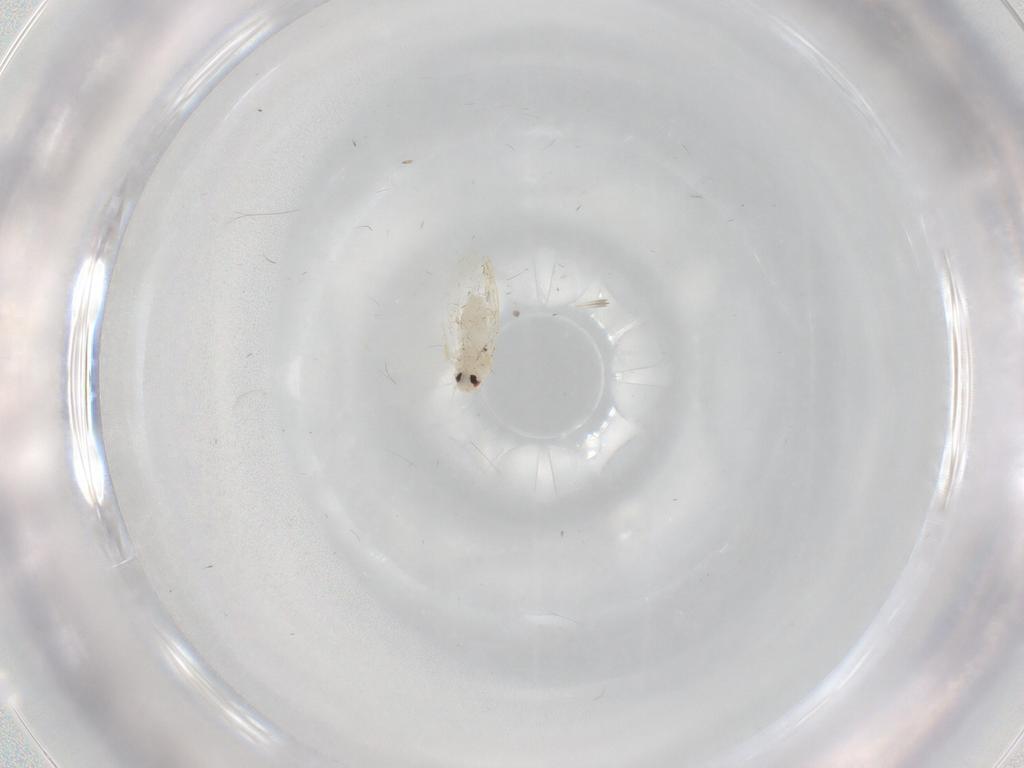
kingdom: Animalia
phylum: Arthropoda
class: Insecta
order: Hemiptera
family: Aleyrodidae
